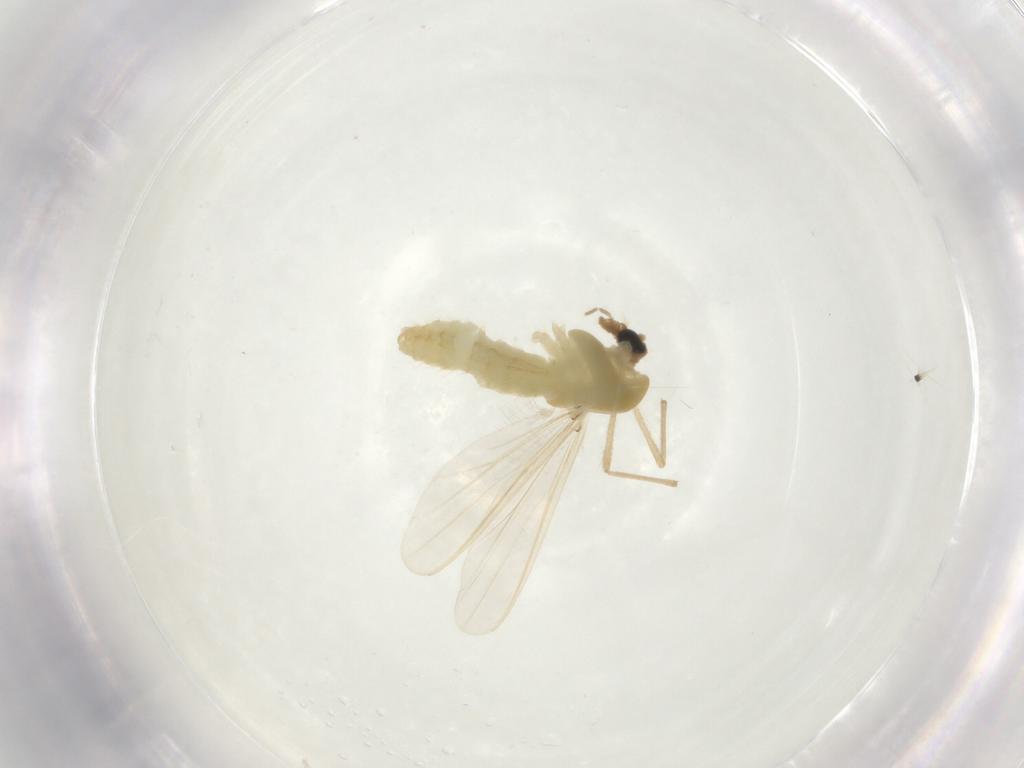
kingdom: Animalia
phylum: Arthropoda
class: Insecta
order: Diptera
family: Chironomidae
